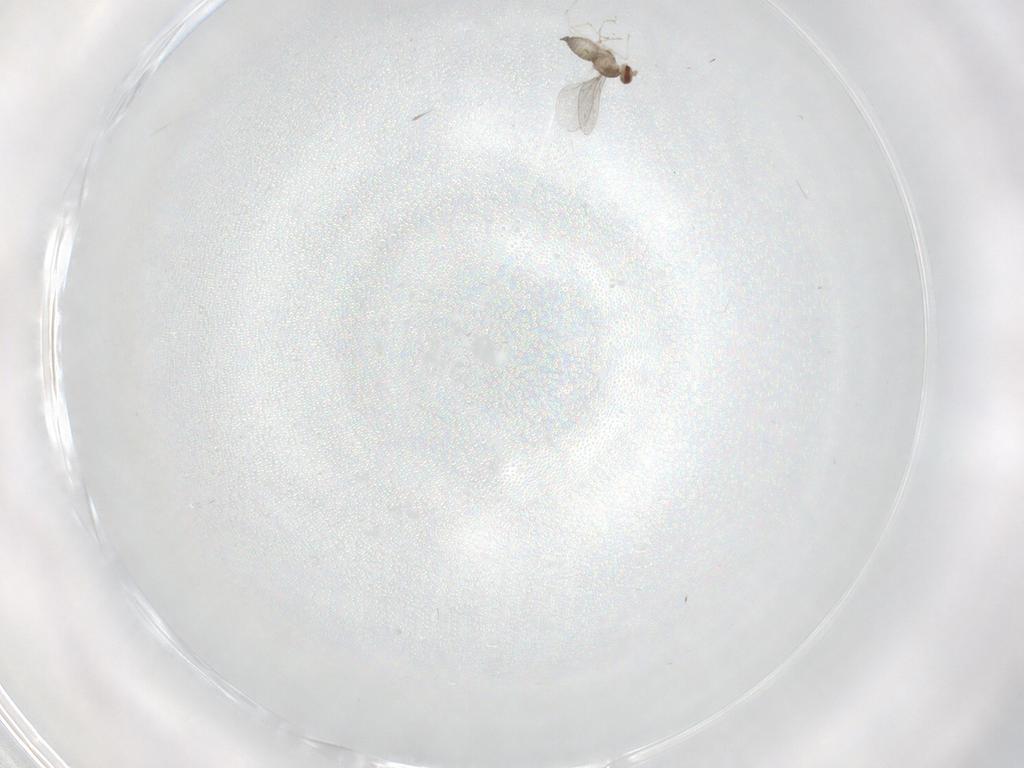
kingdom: Animalia
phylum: Arthropoda
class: Insecta
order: Diptera
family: Cecidomyiidae
